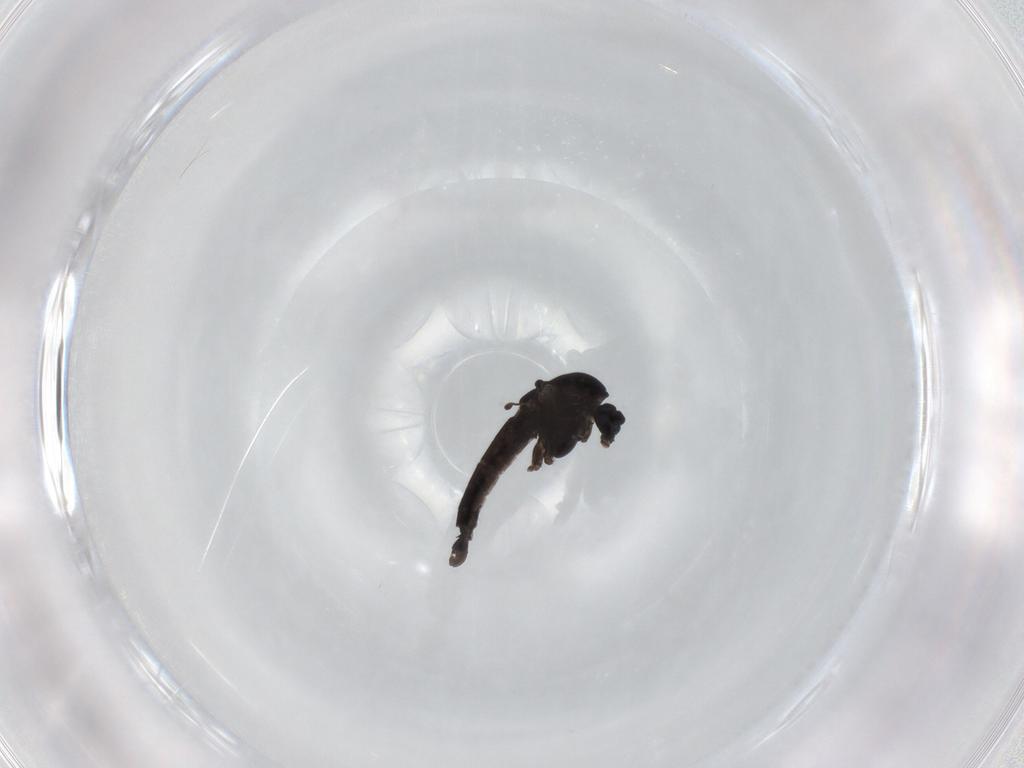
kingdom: Animalia
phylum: Arthropoda
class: Insecta
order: Diptera
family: Chironomidae
